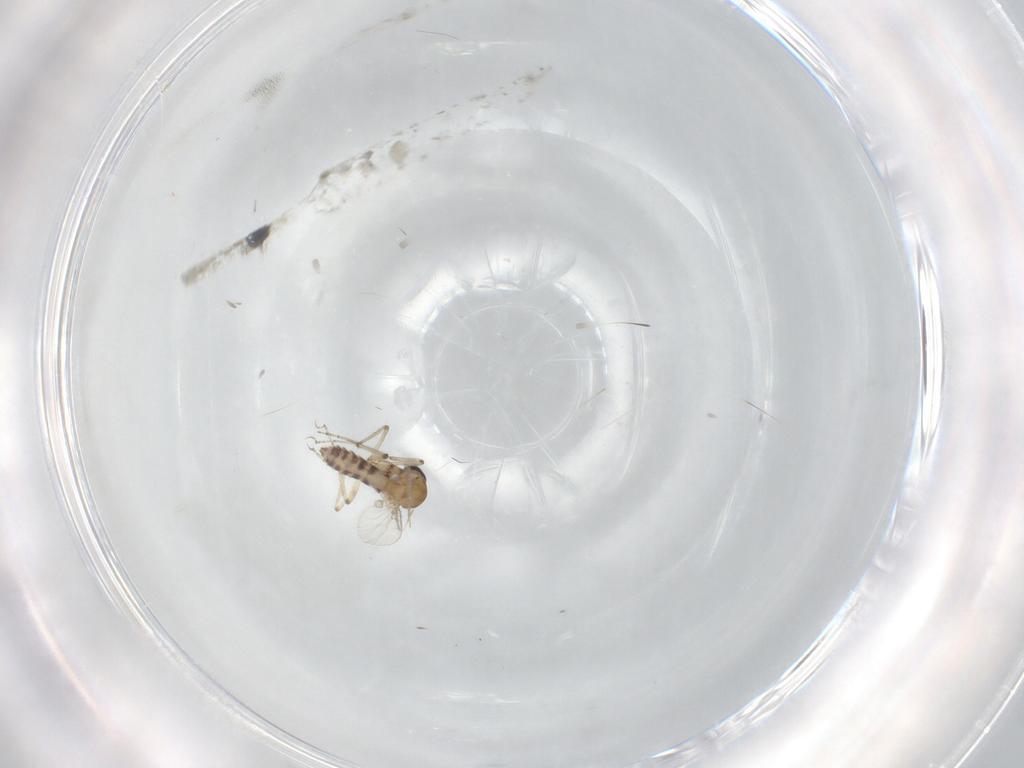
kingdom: Animalia
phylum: Arthropoda
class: Insecta
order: Diptera
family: Ceratopogonidae
